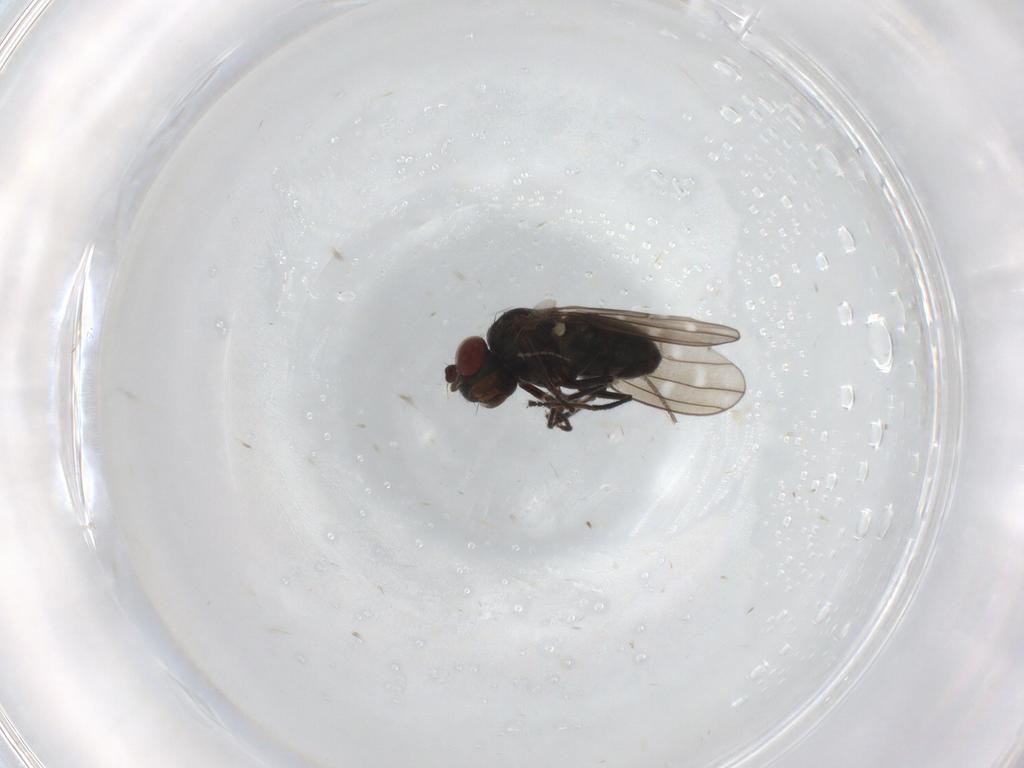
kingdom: Animalia
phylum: Arthropoda
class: Insecta
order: Diptera
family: Ephydridae
